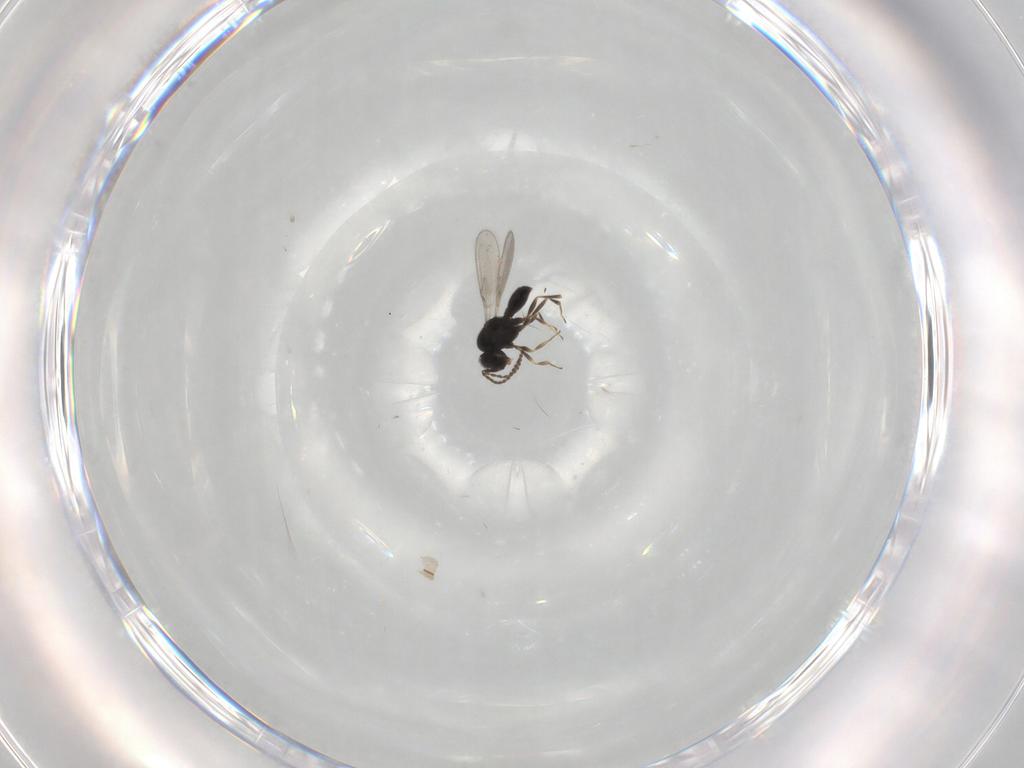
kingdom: Animalia
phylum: Arthropoda
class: Insecta
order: Hymenoptera
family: Scelionidae
